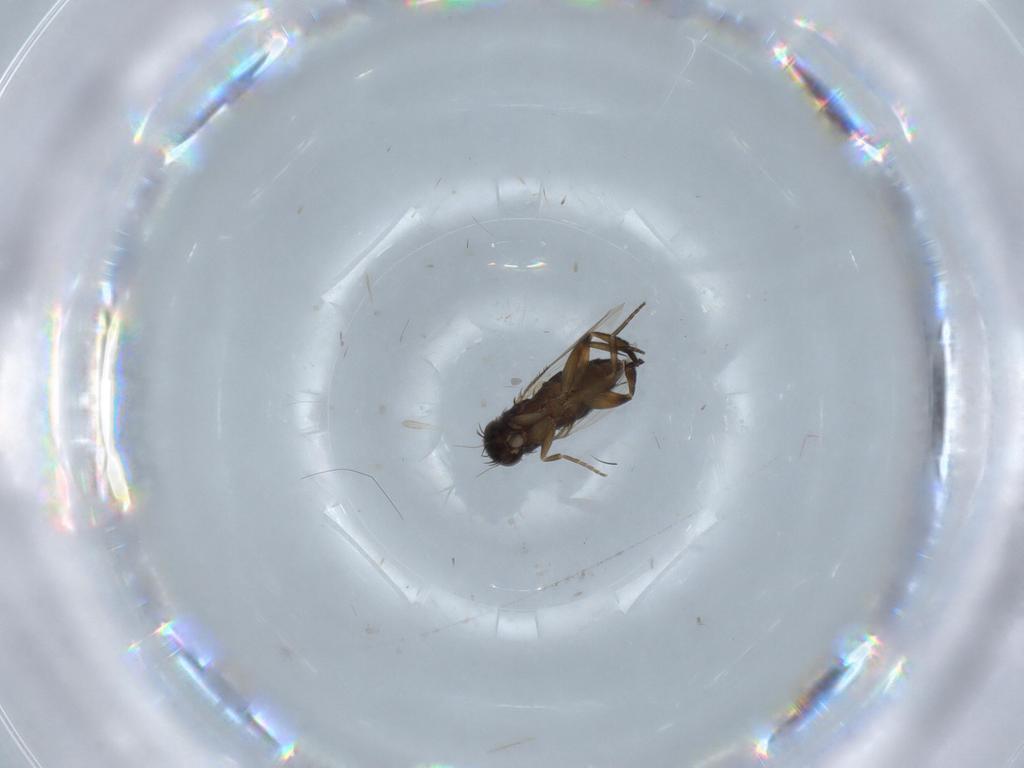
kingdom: Animalia
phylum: Arthropoda
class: Insecta
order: Diptera
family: Phoridae
